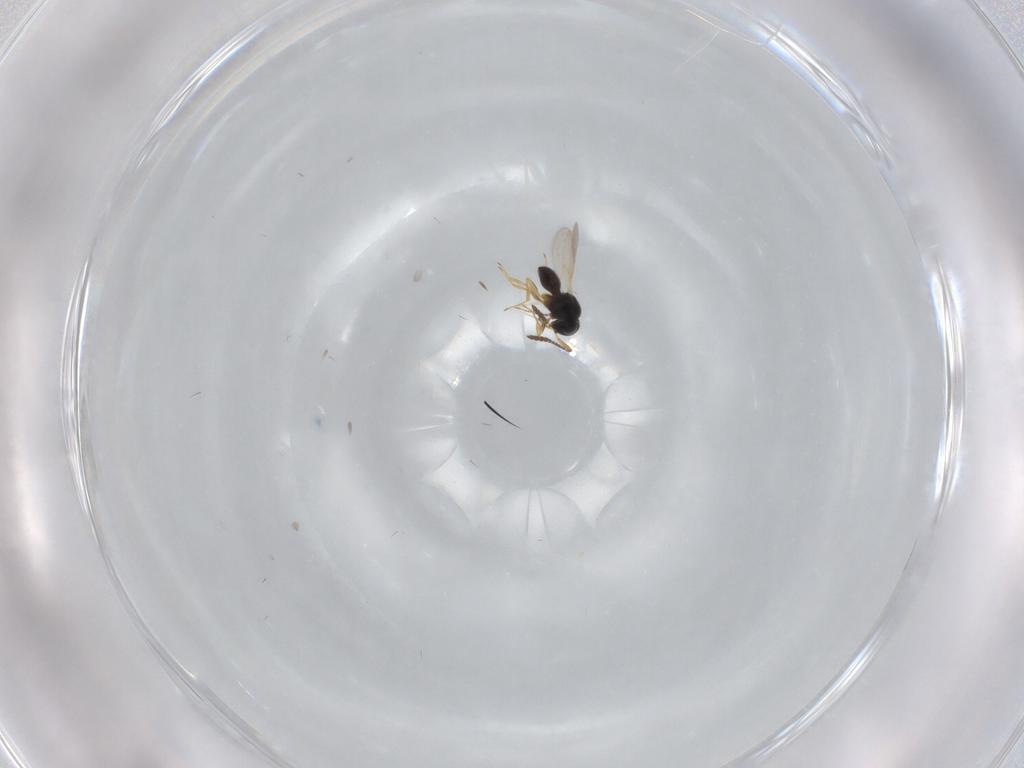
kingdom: Animalia
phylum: Arthropoda
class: Insecta
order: Hymenoptera
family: Scelionidae
